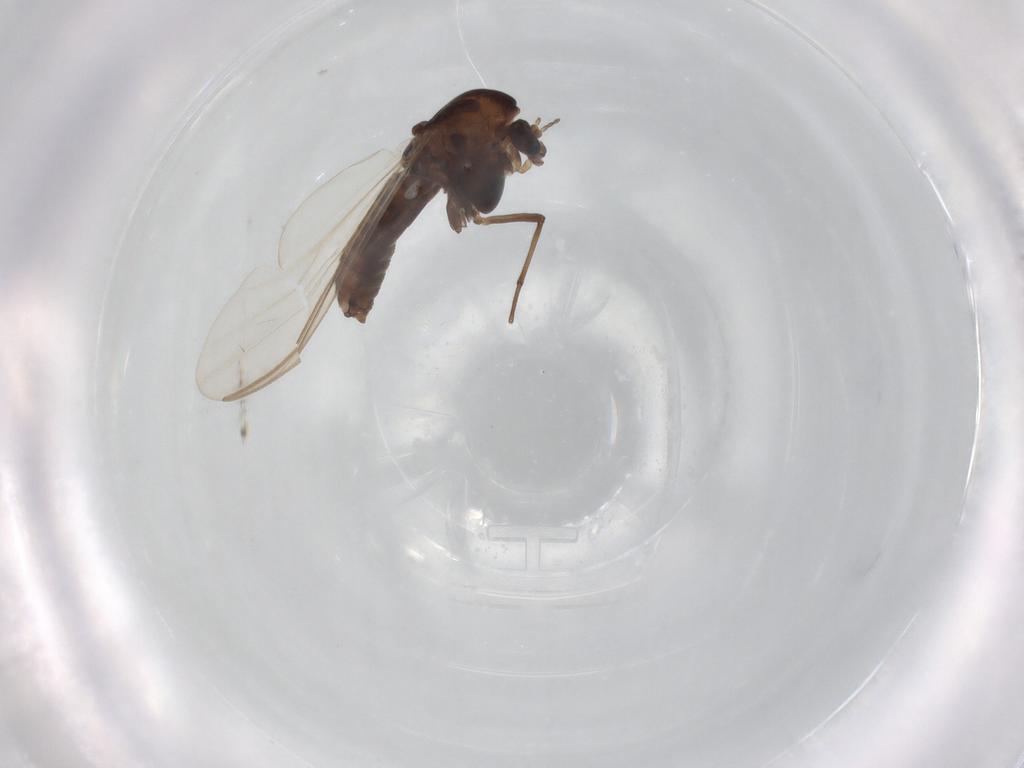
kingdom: Animalia
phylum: Arthropoda
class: Insecta
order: Diptera
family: Chironomidae
